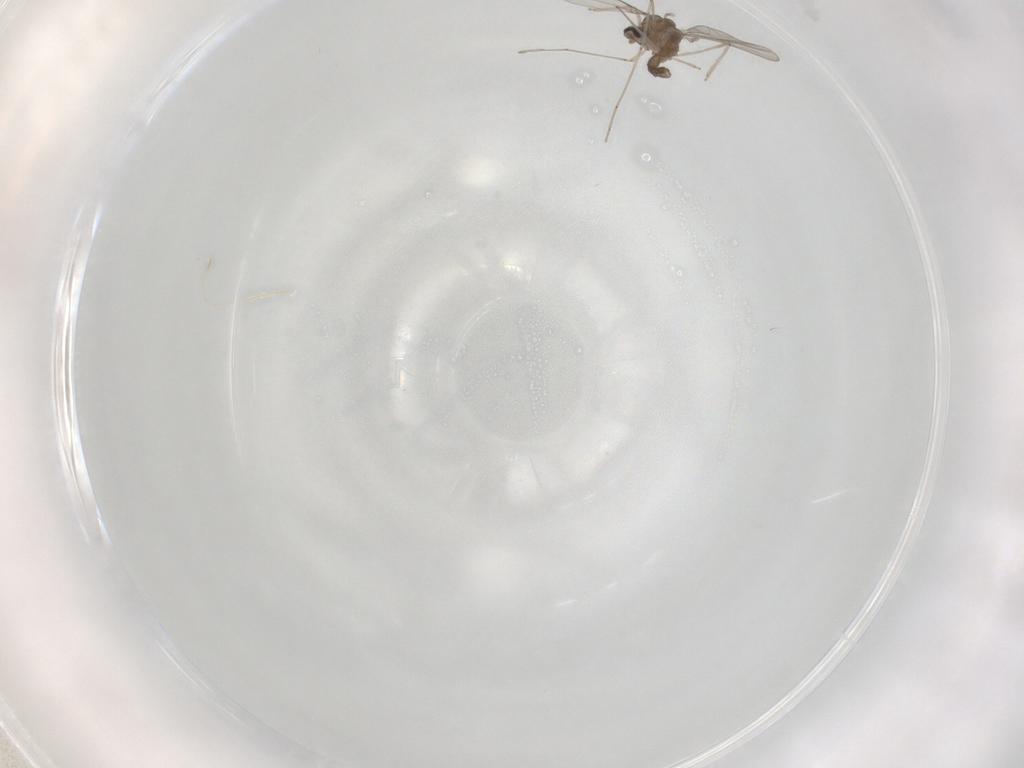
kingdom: Animalia
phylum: Arthropoda
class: Insecta
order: Diptera
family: Cecidomyiidae
